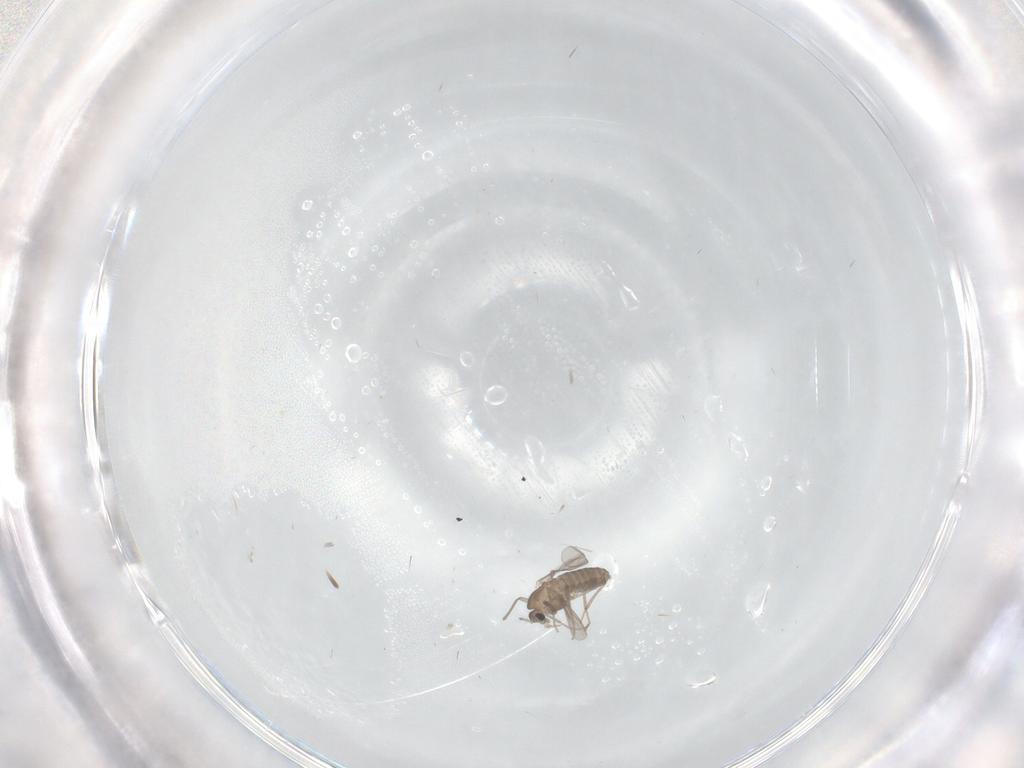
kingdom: Animalia
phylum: Arthropoda
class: Insecta
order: Diptera
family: Chironomidae
